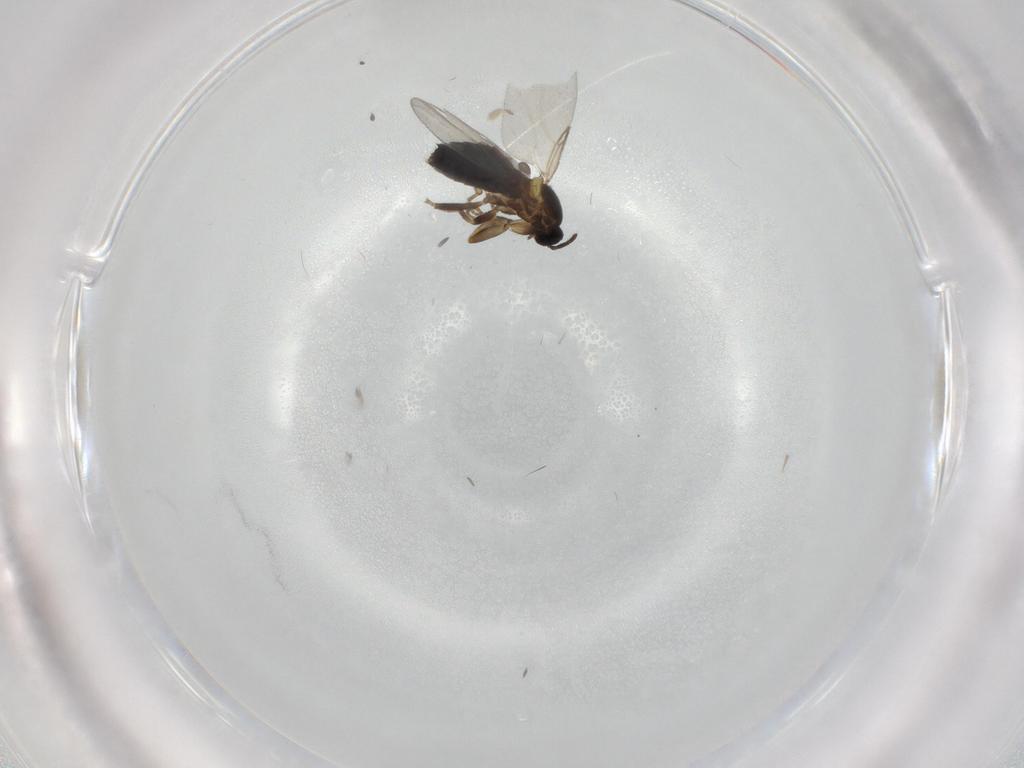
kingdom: Animalia
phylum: Arthropoda
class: Insecta
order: Diptera
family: Scatopsidae
